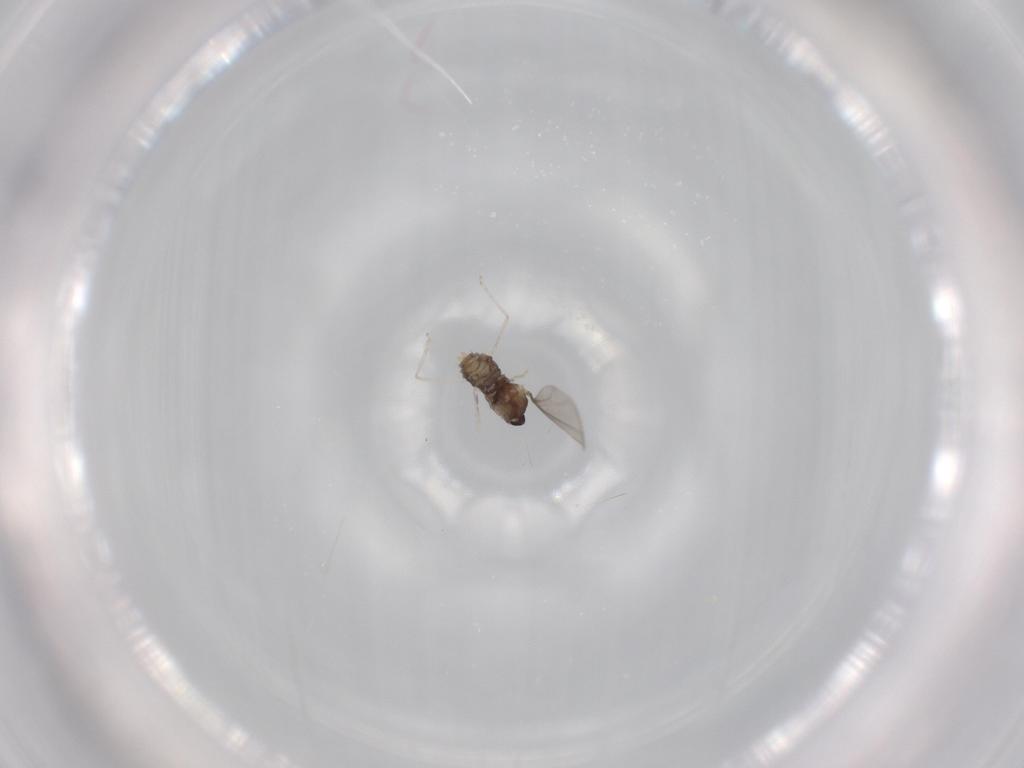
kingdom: Animalia
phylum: Arthropoda
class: Insecta
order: Diptera
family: Cecidomyiidae
